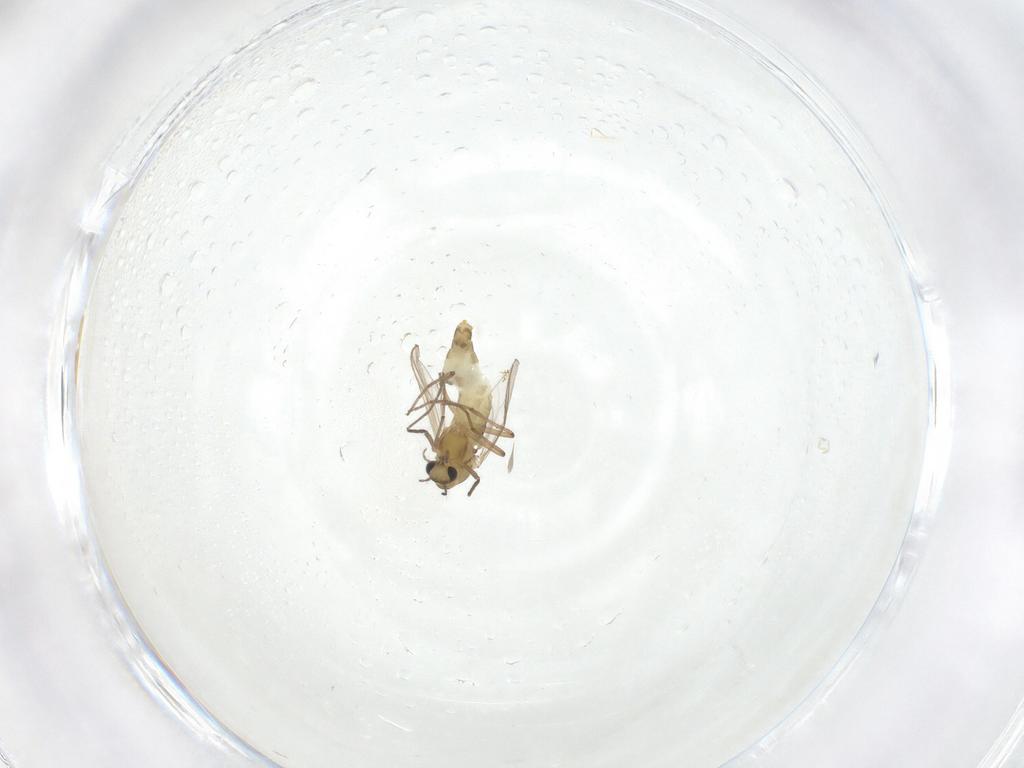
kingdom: Animalia
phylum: Arthropoda
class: Insecta
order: Diptera
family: Chironomidae
